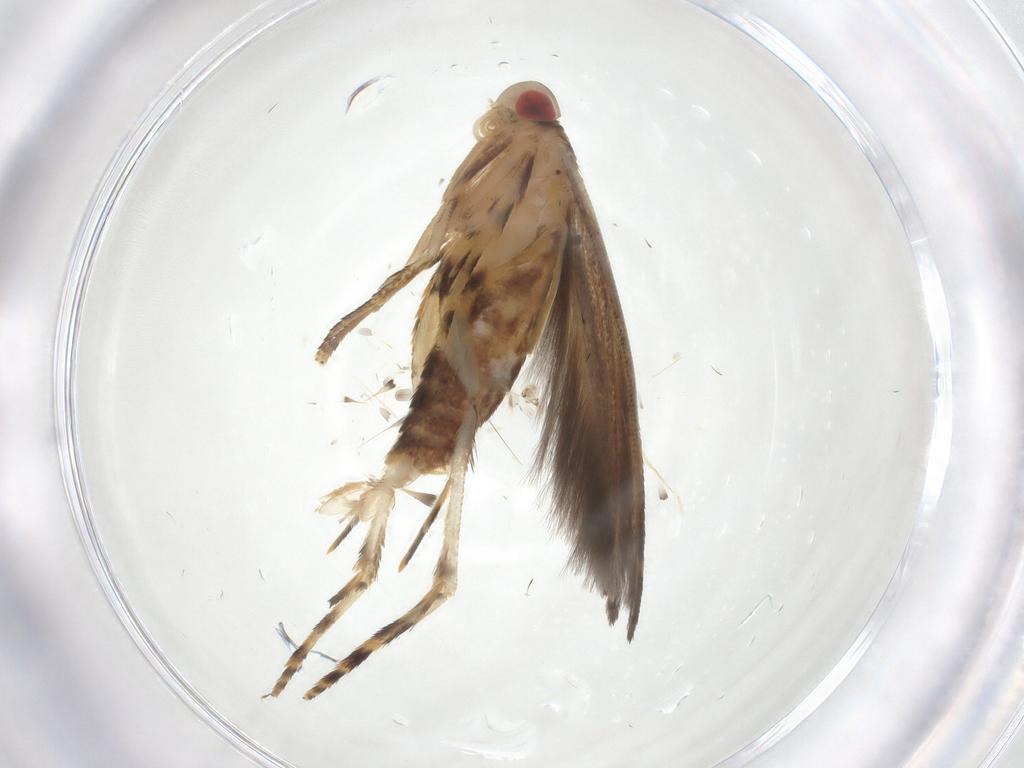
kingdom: Animalia
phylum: Arthropoda
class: Insecta
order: Lepidoptera
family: Cosmopterigidae
